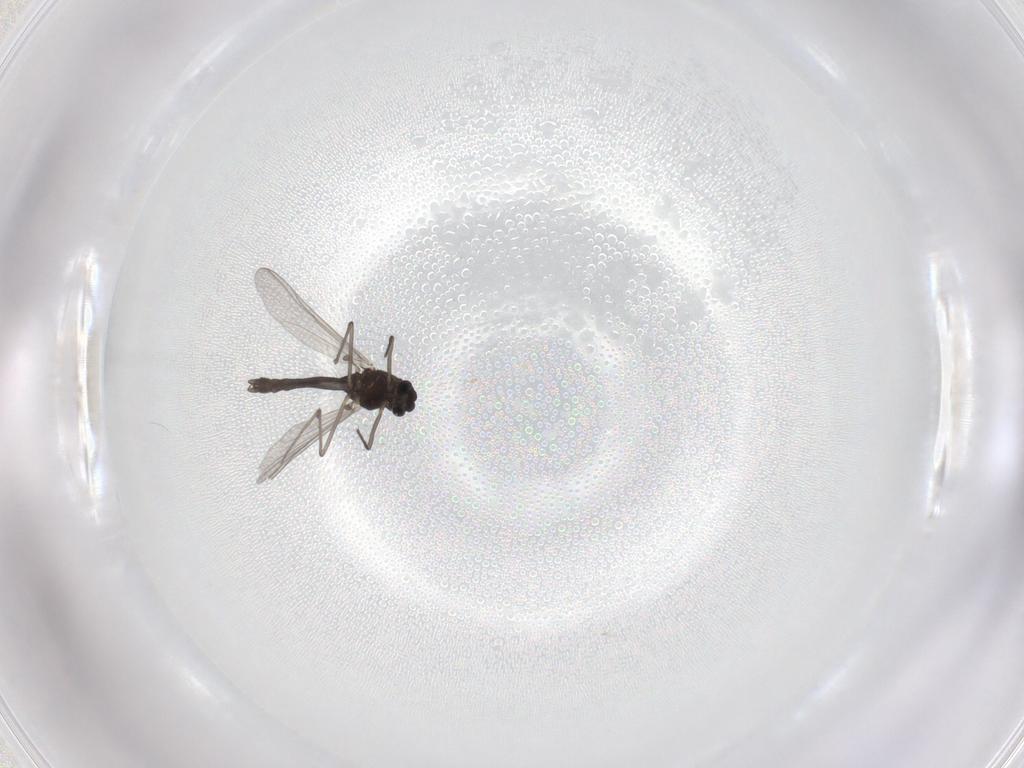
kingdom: Animalia
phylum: Arthropoda
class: Insecta
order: Diptera
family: Chironomidae
